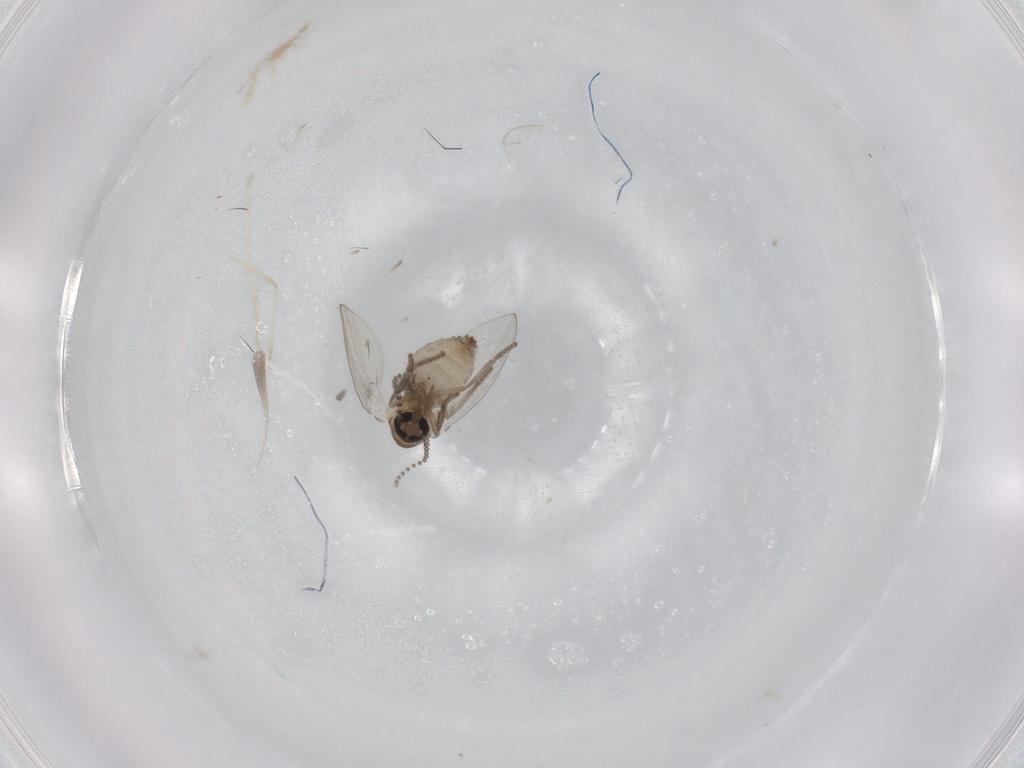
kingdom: Animalia
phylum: Arthropoda
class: Insecta
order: Diptera
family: Psychodidae
